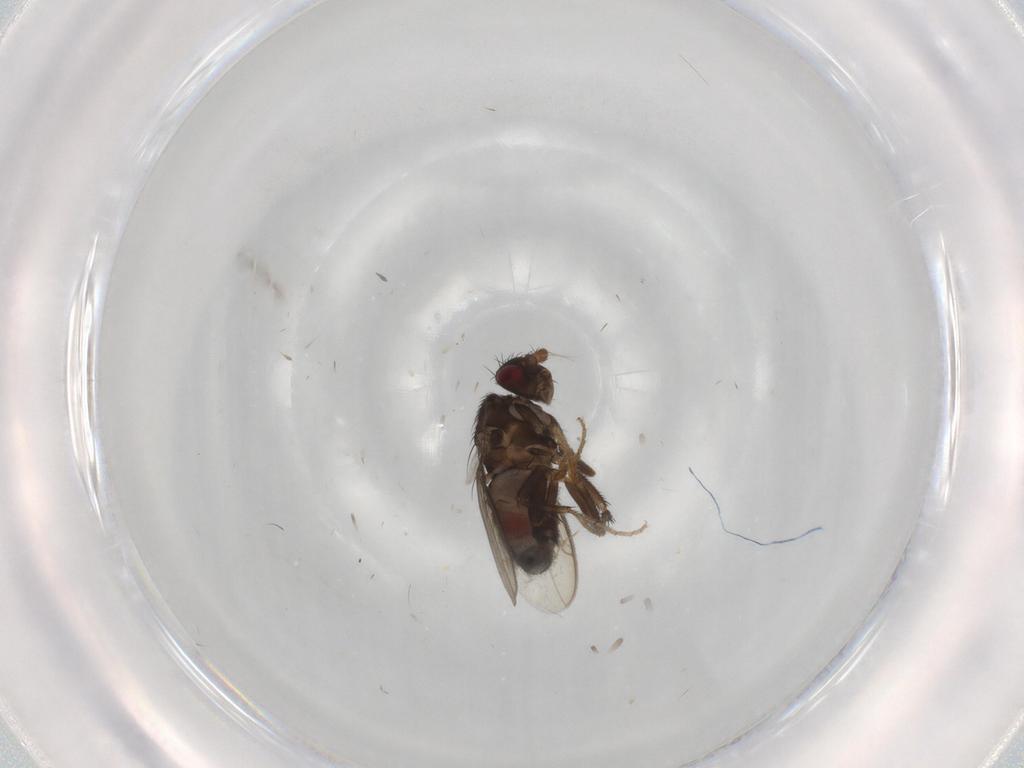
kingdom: Animalia
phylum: Arthropoda
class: Insecta
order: Diptera
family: Sphaeroceridae
